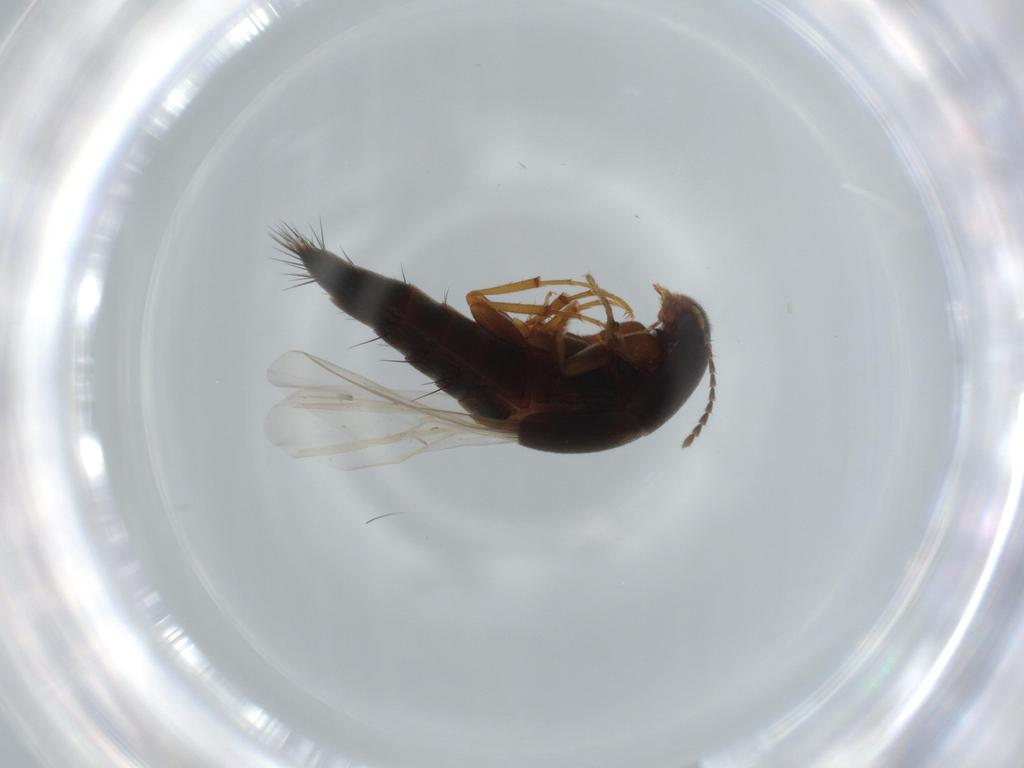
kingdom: Animalia
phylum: Arthropoda
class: Insecta
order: Coleoptera
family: Staphylinidae
